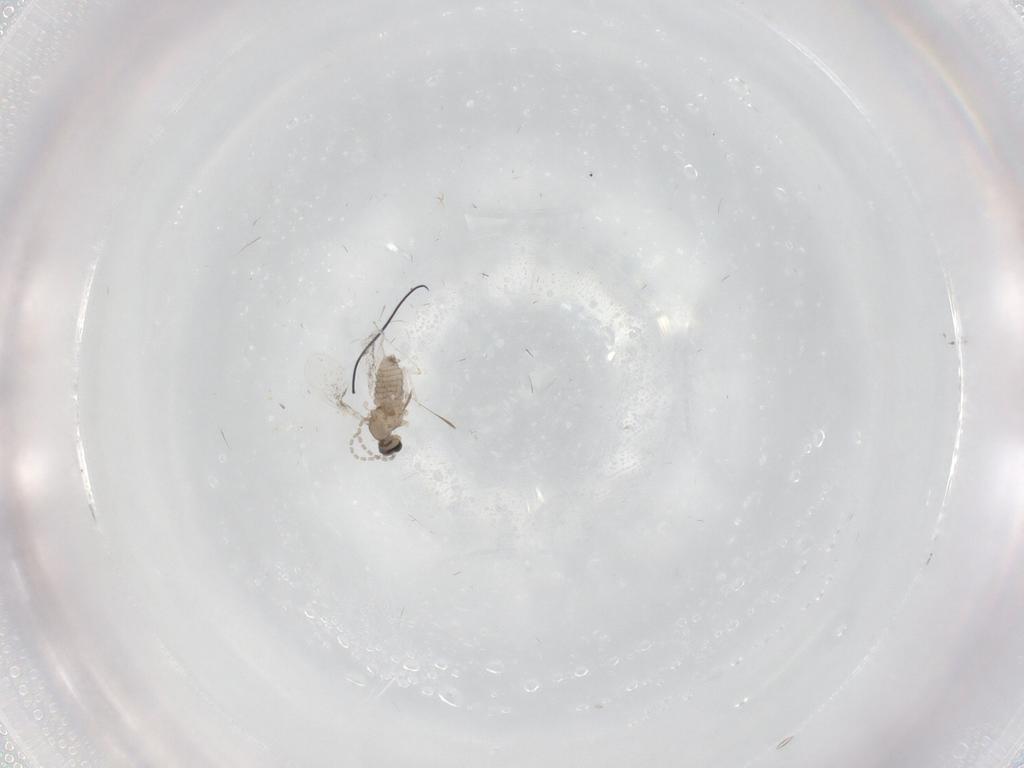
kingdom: Animalia
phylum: Arthropoda
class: Insecta
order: Diptera
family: Cecidomyiidae
